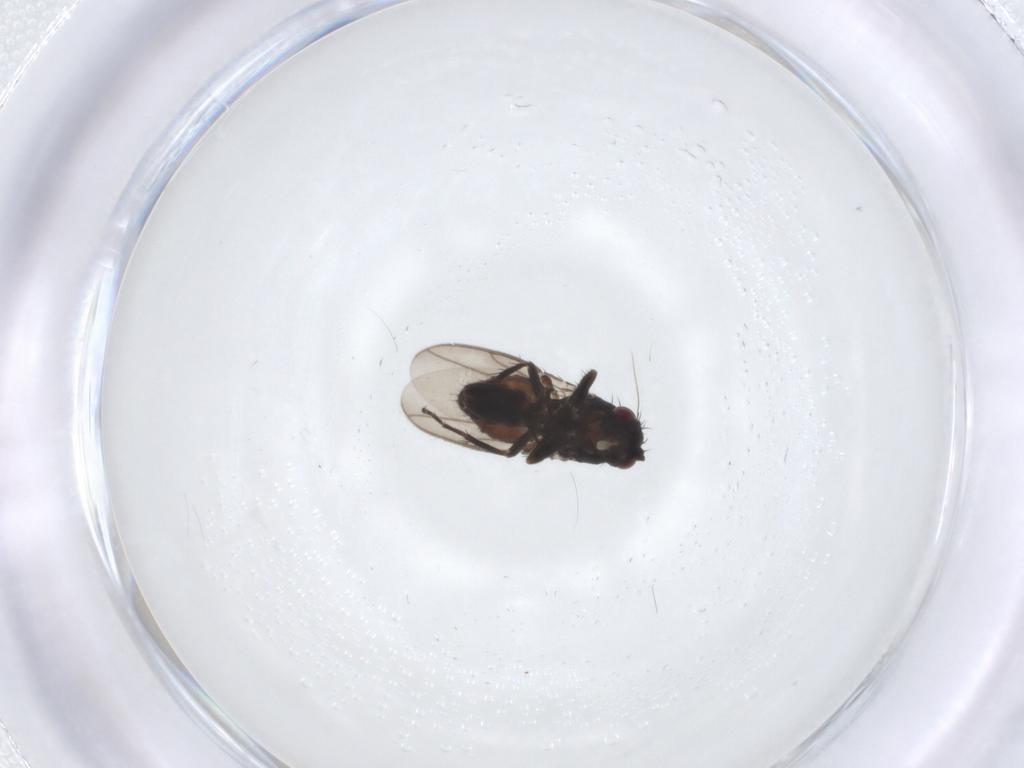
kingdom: Animalia
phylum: Arthropoda
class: Insecta
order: Diptera
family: Sphaeroceridae
